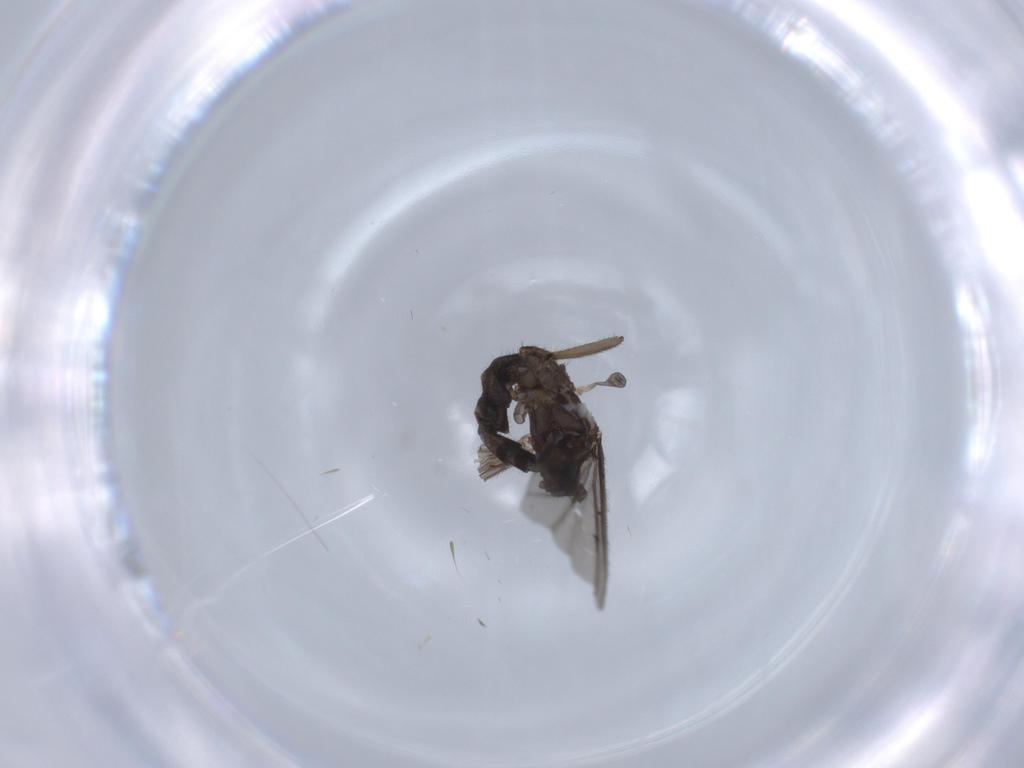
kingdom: Animalia
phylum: Arthropoda
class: Insecta
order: Diptera
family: Sciaridae
